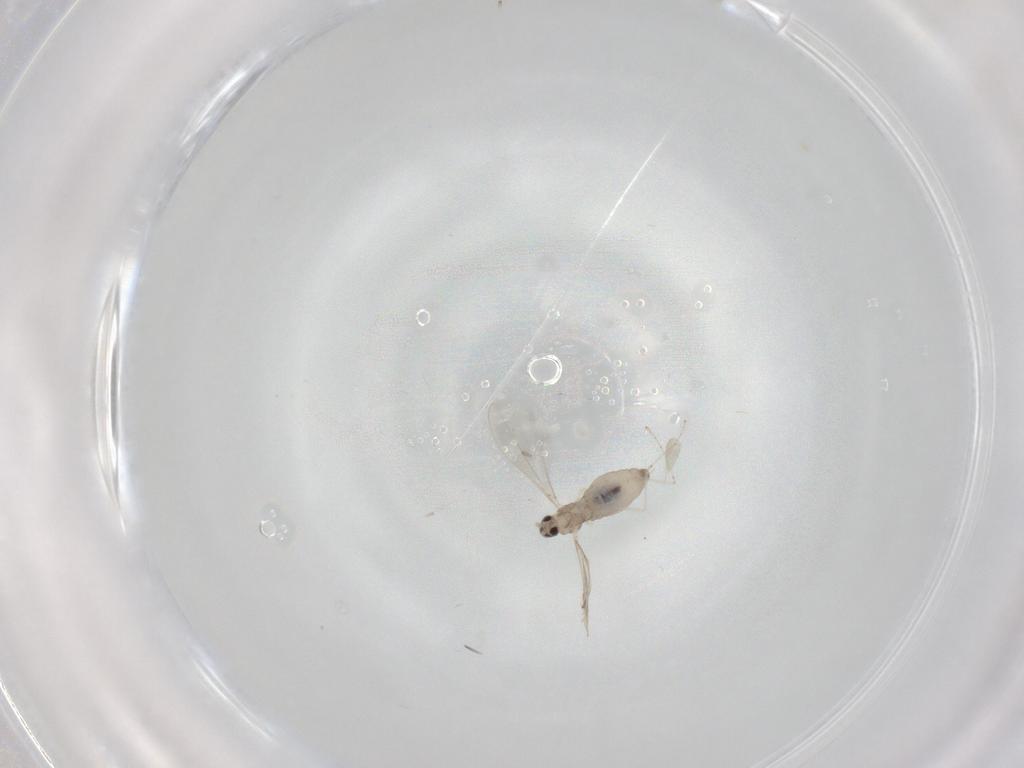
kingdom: Animalia
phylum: Arthropoda
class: Insecta
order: Diptera
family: Cecidomyiidae
